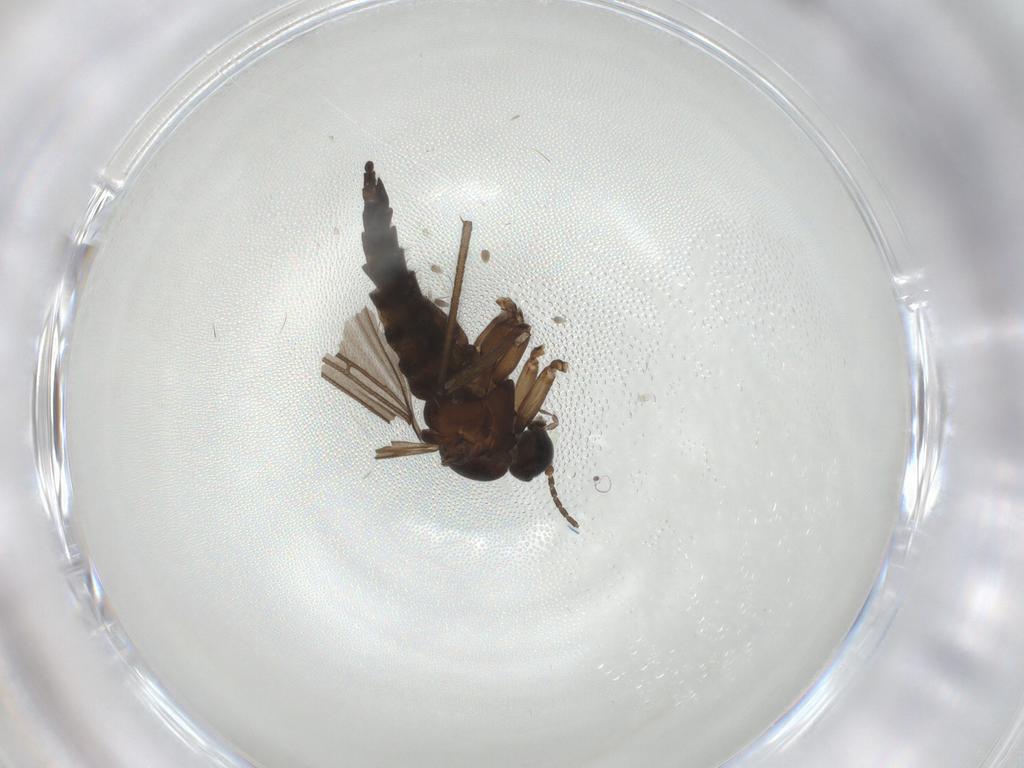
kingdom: Animalia
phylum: Arthropoda
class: Insecta
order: Diptera
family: Sciaridae
